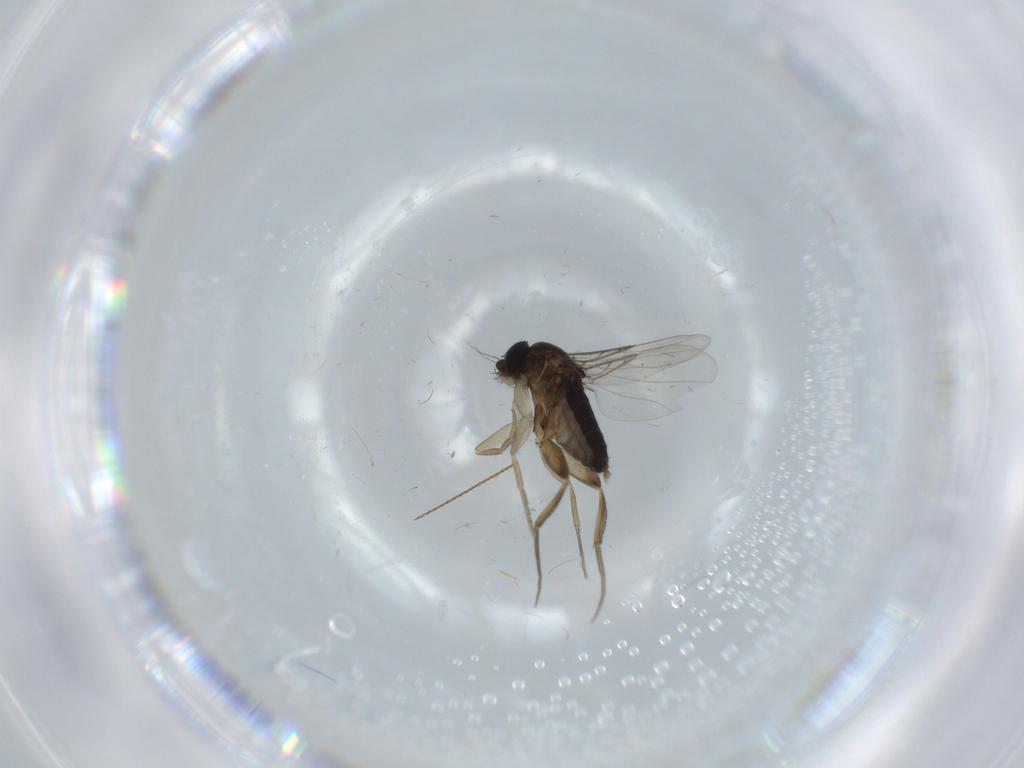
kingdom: Animalia
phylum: Arthropoda
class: Insecta
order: Diptera
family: Phoridae
